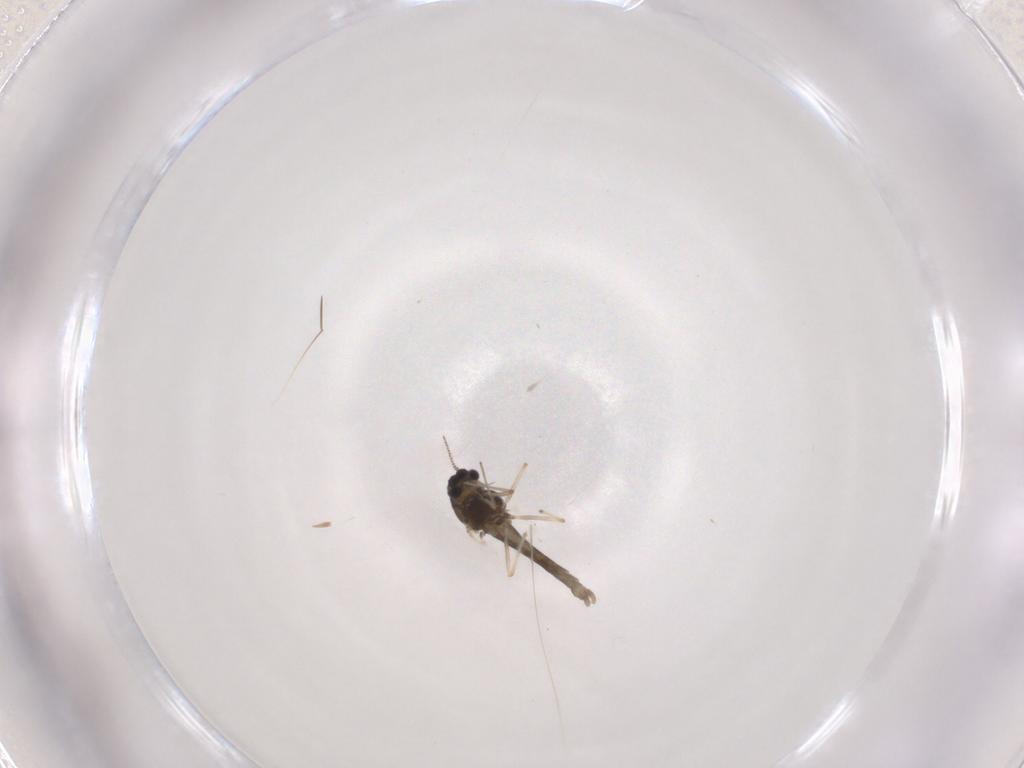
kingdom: Animalia
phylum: Arthropoda
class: Insecta
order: Diptera
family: Chironomidae
